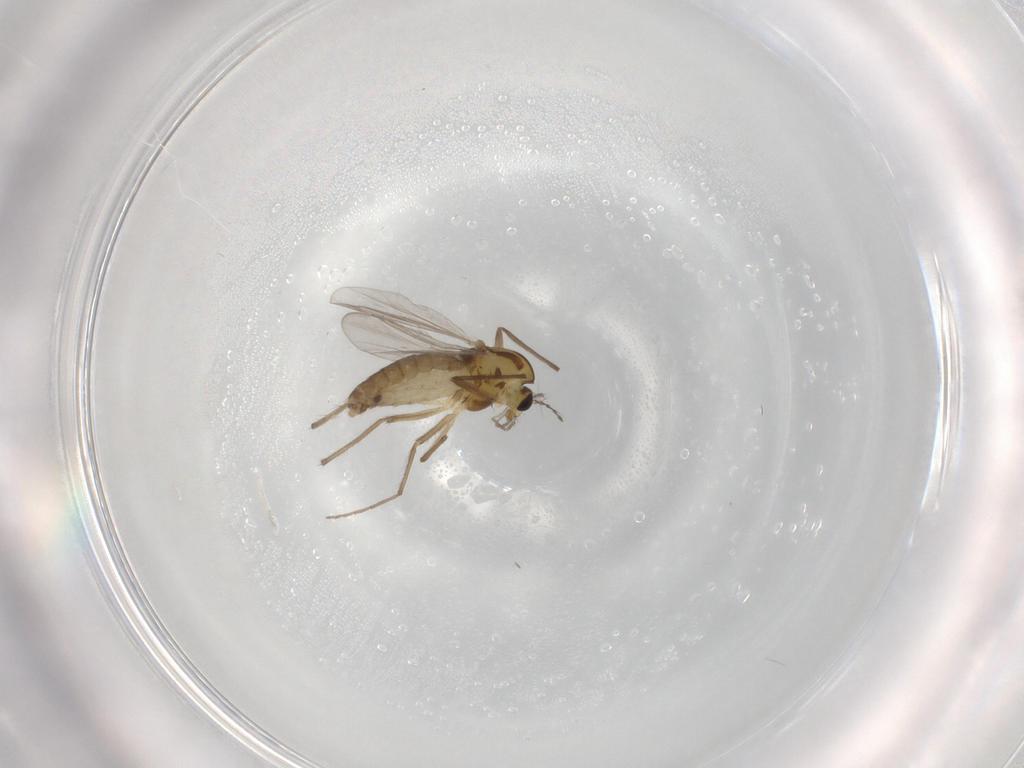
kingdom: Animalia
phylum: Arthropoda
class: Insecta
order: Diptera
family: Chironomidae
